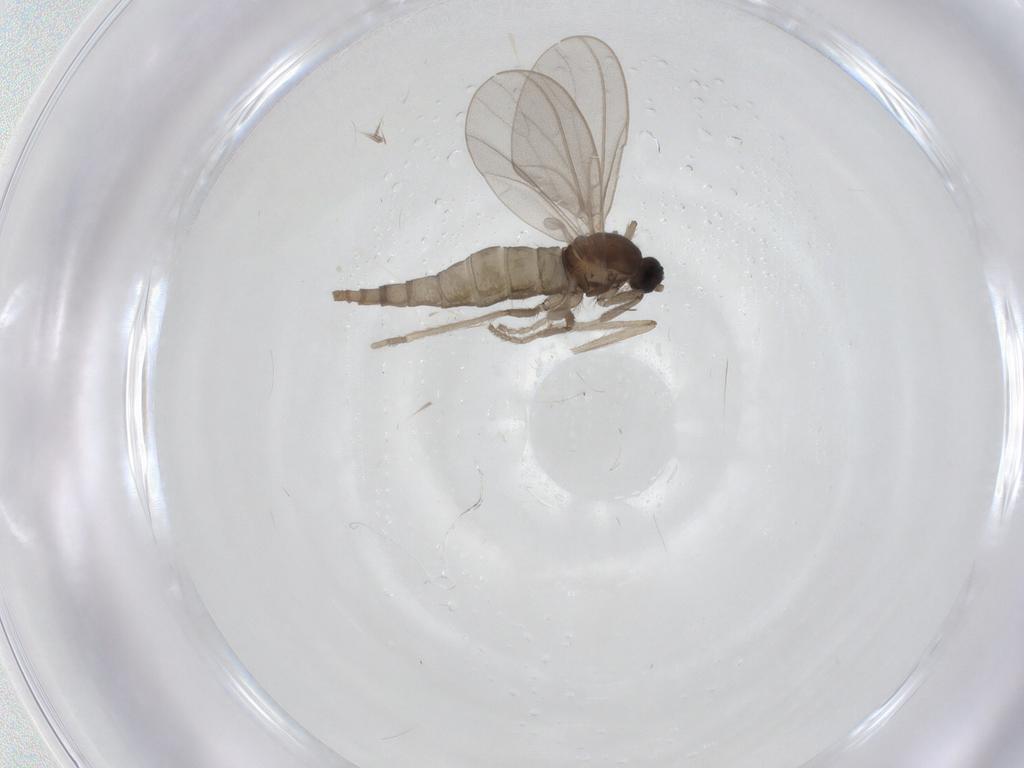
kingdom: Animalia
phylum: Arthropoda
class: Insecta
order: Diptera
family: Cecidomyiidae
